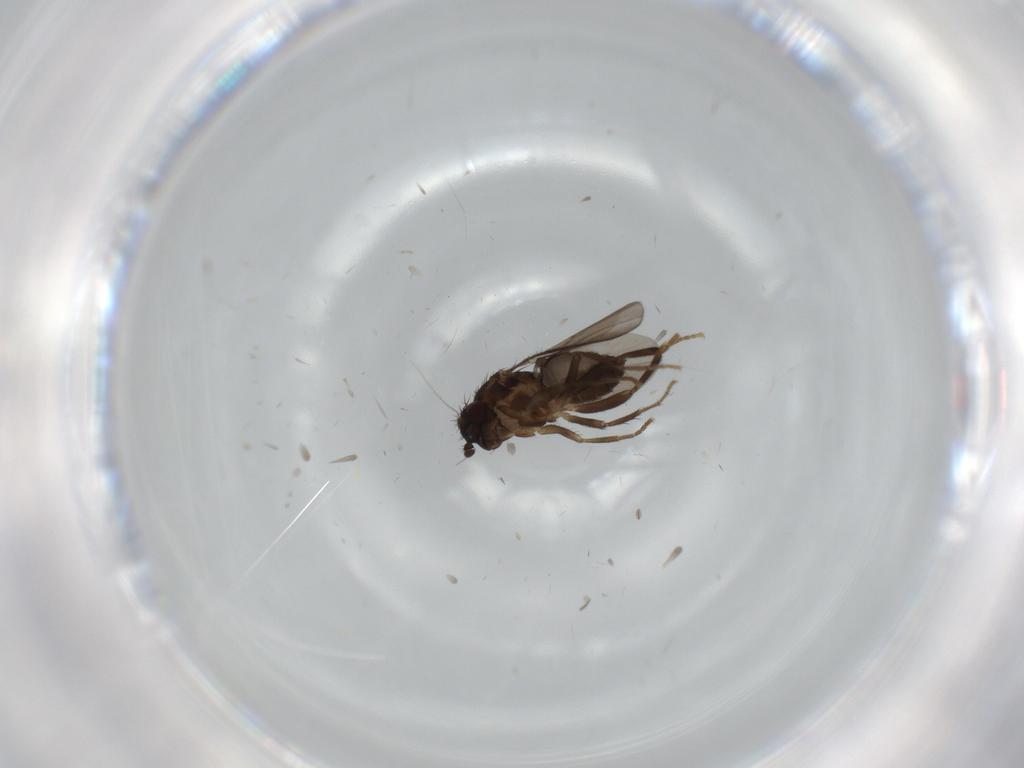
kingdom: Animalia
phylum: Arthropoda
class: Insecta
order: Diptera
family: Sphaeroceridae
